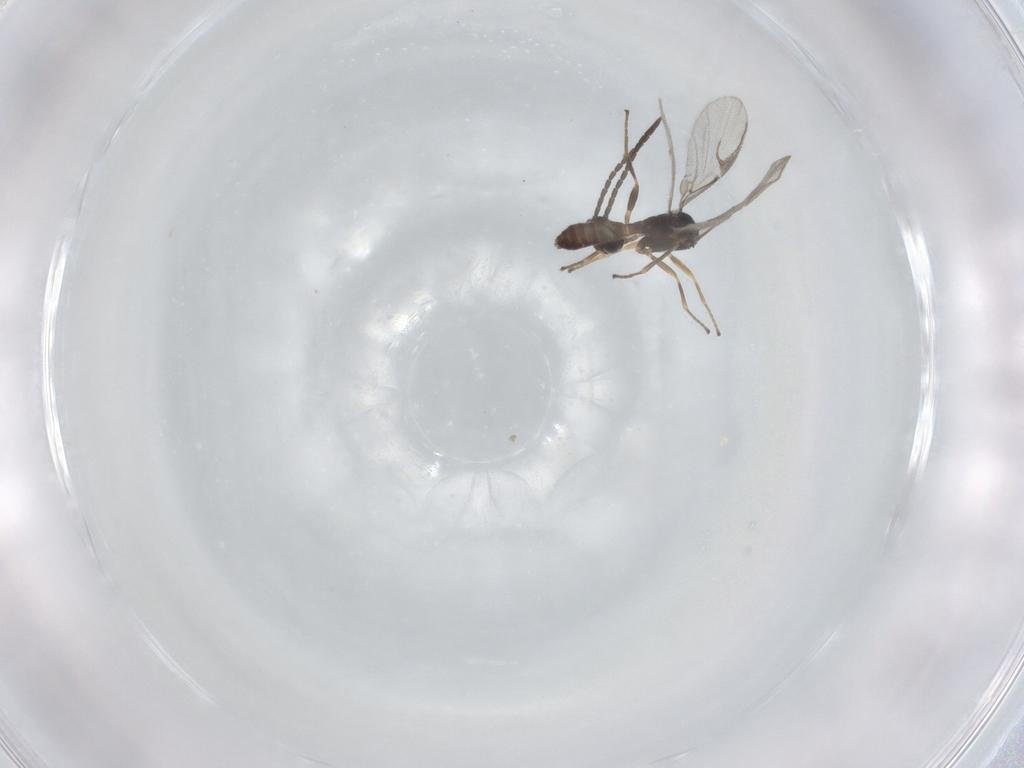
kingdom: Animalia
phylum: Arthropoda
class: Insecta
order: Hymenoptera
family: Braconidae
